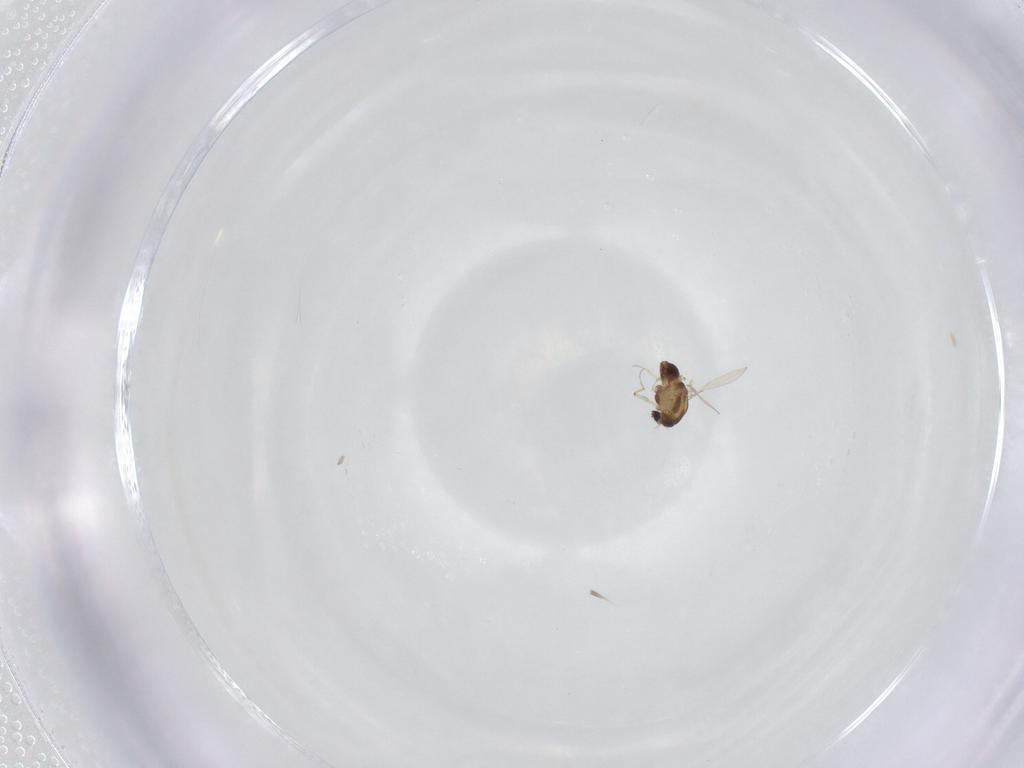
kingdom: Animalia
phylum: Arthropoda
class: Insecta
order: Diptera
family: Chironomidae
